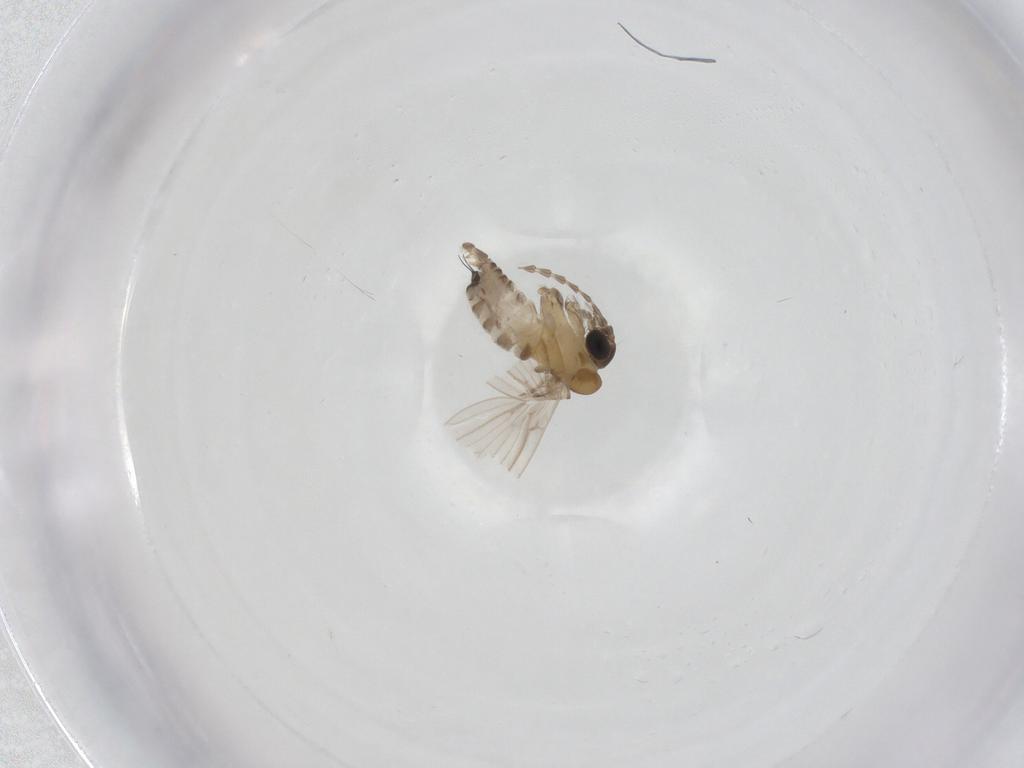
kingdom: Animalia
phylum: Arthropoda
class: Insecta
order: Diptera
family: Psychodidae
